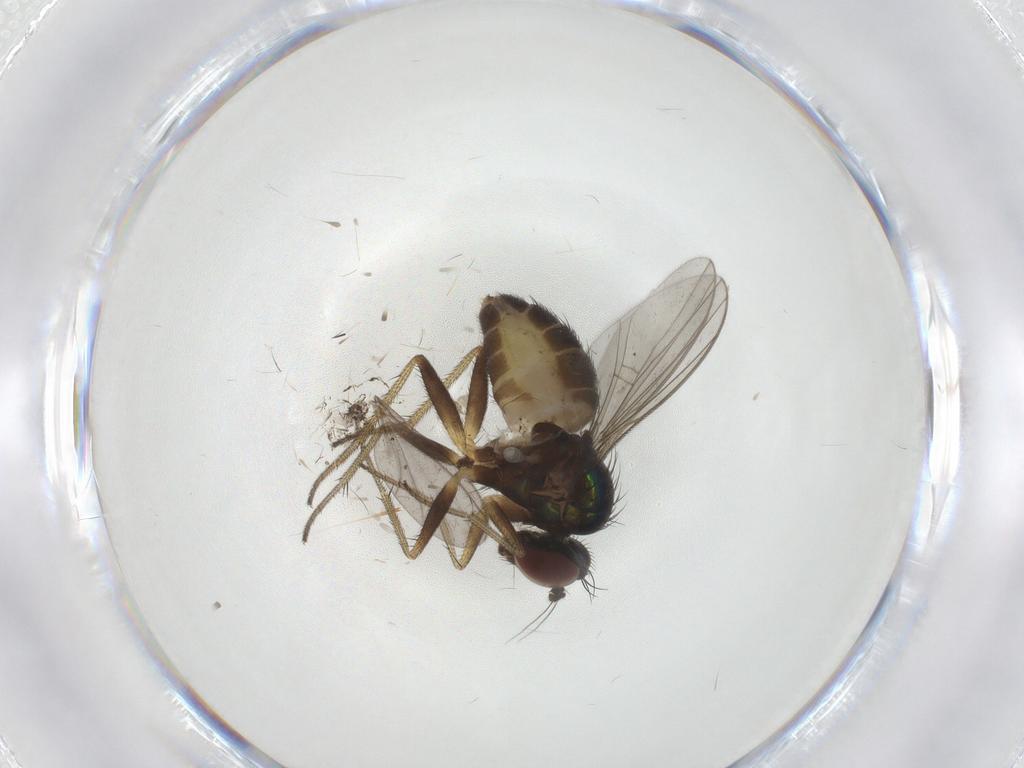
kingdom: Animalia
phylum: Arthropoda
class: Insecta
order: Diptera
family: Sciaridae
